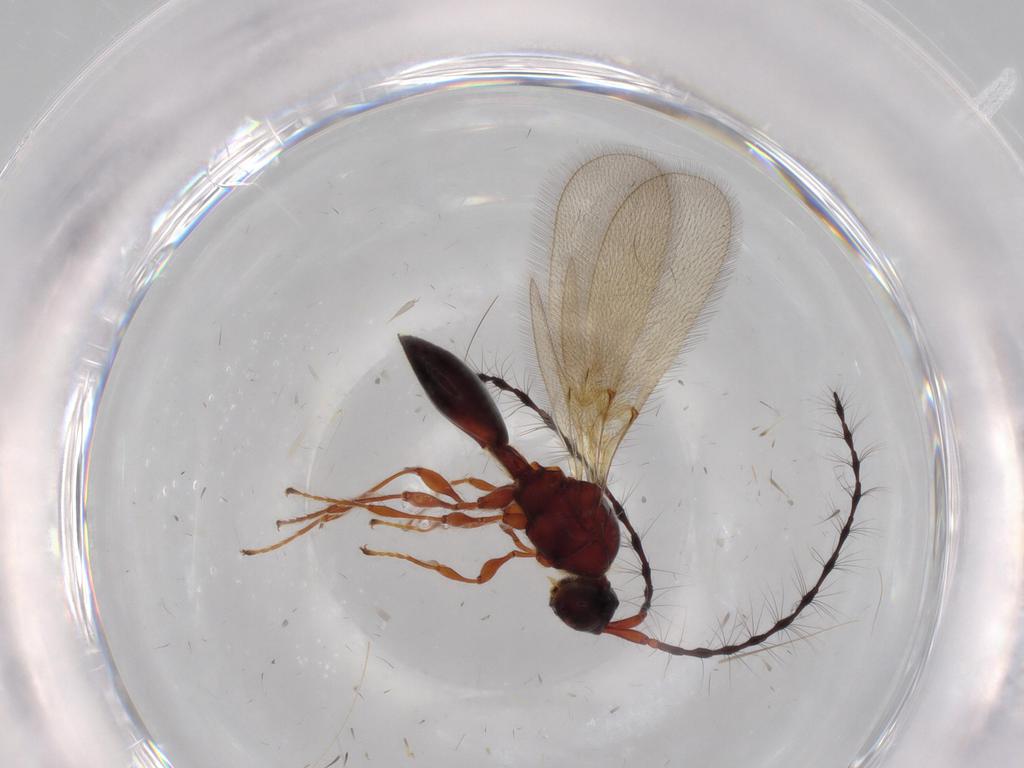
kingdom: Animalia
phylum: Arthropoda
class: Insecta
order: Hymenoptera
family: Diapriidae
